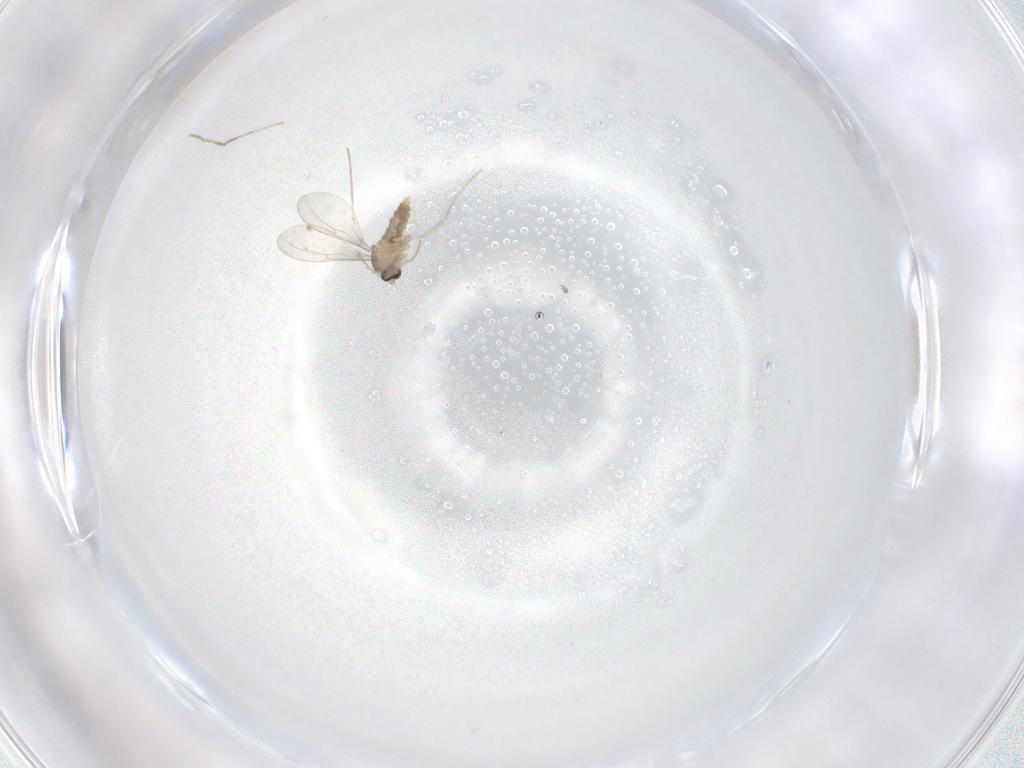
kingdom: Animalia
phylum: Arthropoda
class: Insecta
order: Diptera
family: Cecidomyiidae
